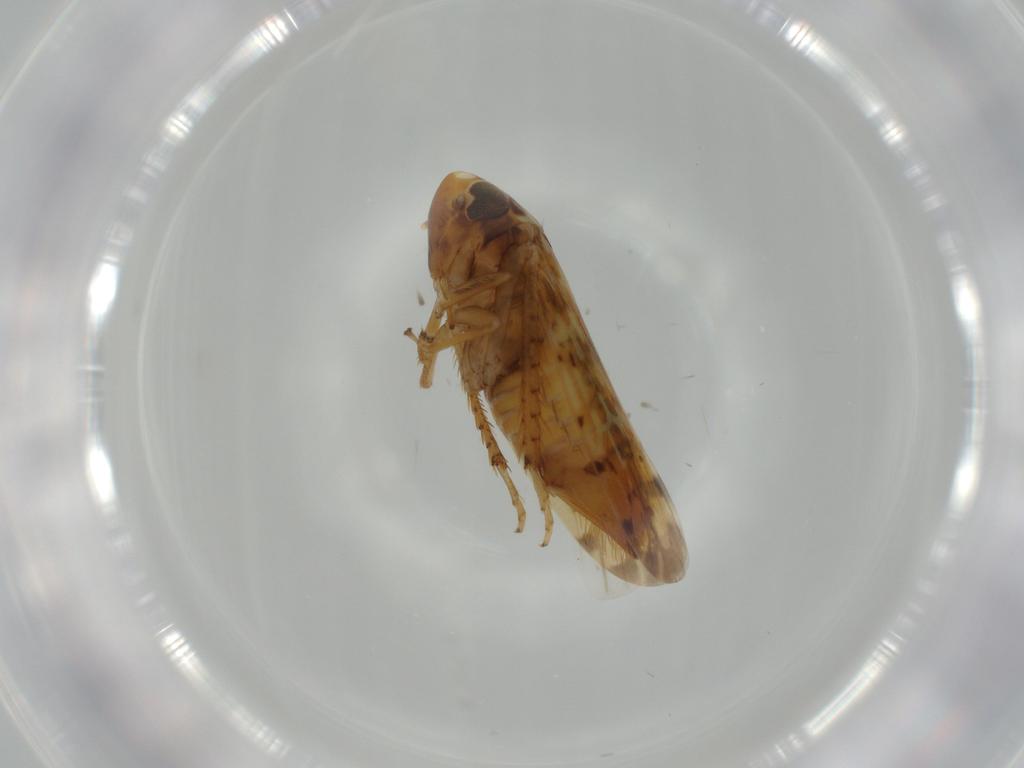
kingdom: Animalia
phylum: Arthropoda
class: Insecta
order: Hemiptera
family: Cicadellidae
